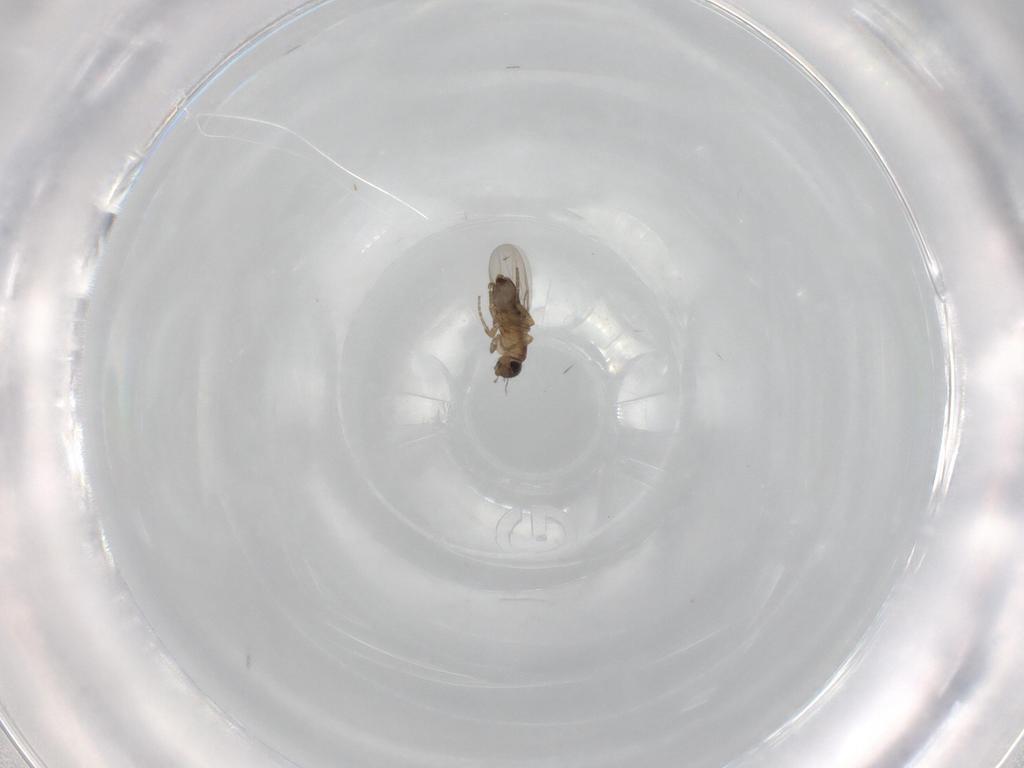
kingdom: Animalia
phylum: Arthropoda
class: Insecta
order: Diptera
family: Phoridae
